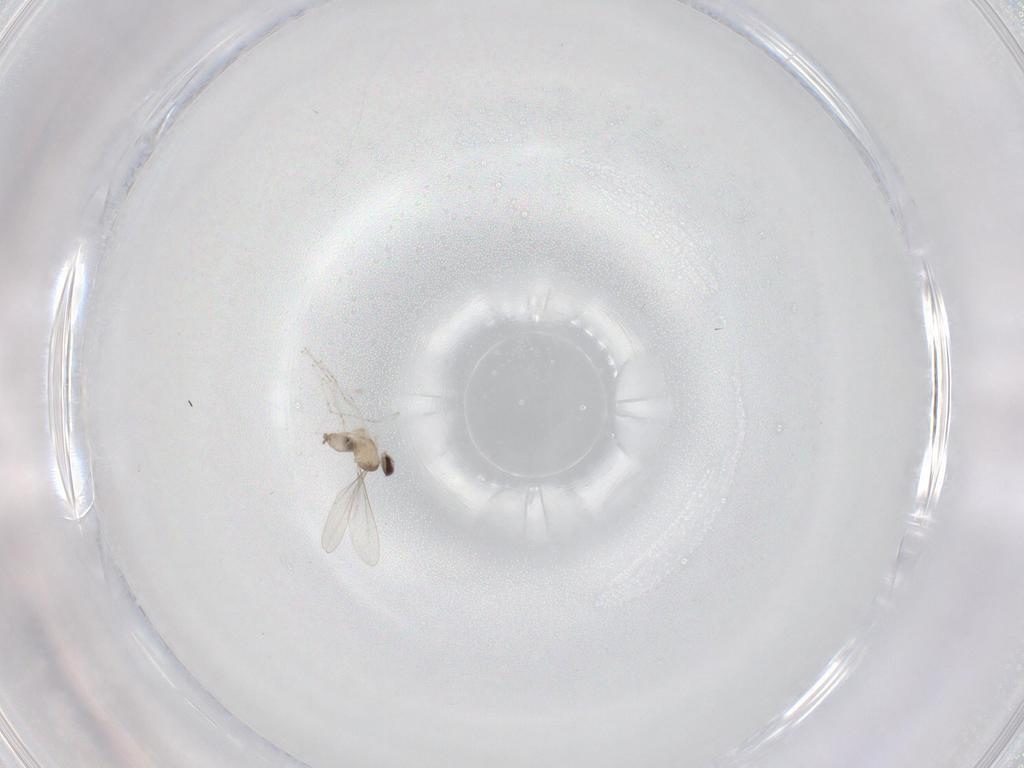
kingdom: Animalia
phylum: Arthropoda
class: Insecta
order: Diptera
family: Cecidomyiidae
